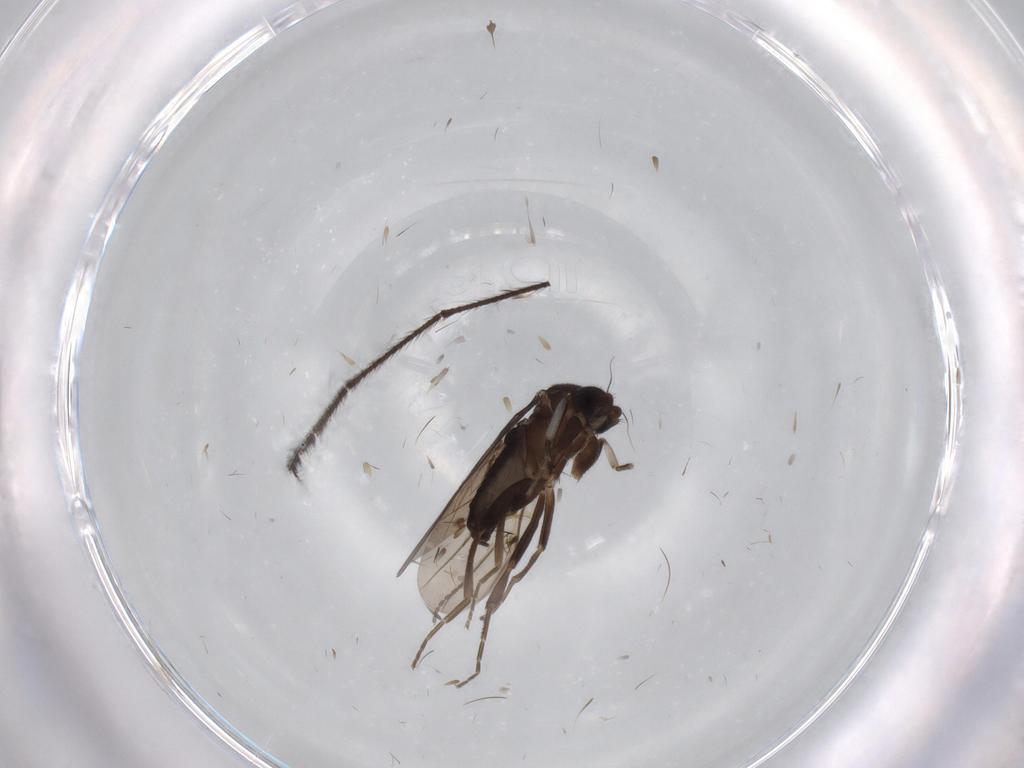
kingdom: Animalia
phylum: Arthropoda
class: Insecta
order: Diptera
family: Phoridae
